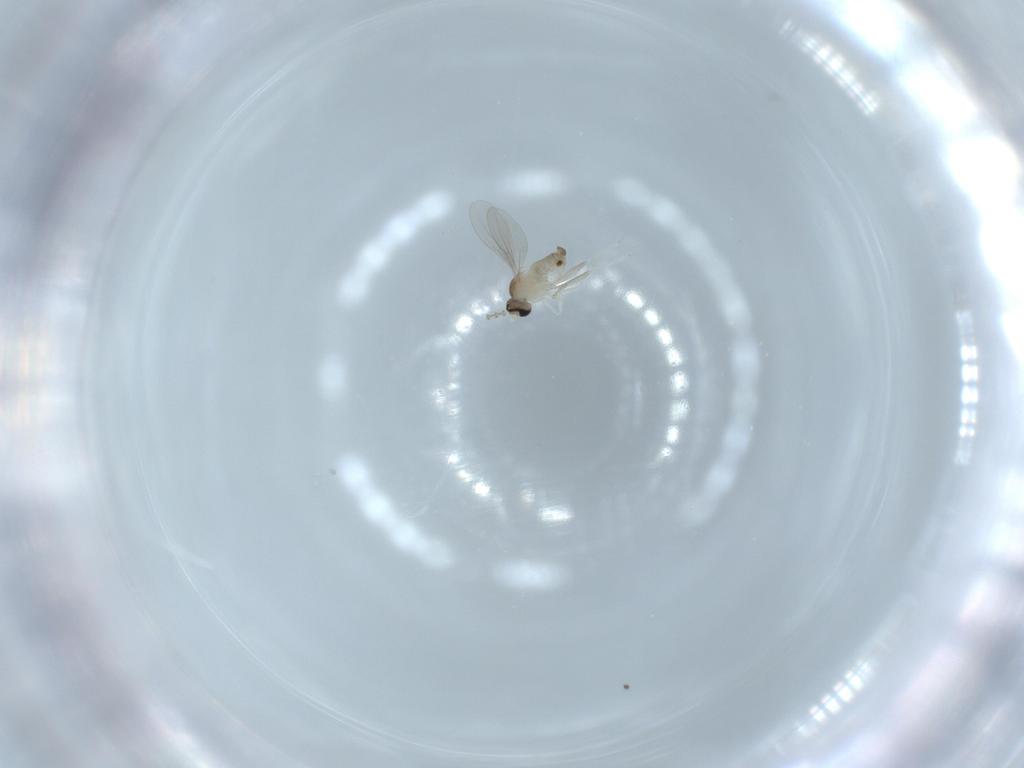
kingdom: Animalia
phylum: Arthropoda
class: Insecta
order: Diptera
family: Cecidomyiidae
